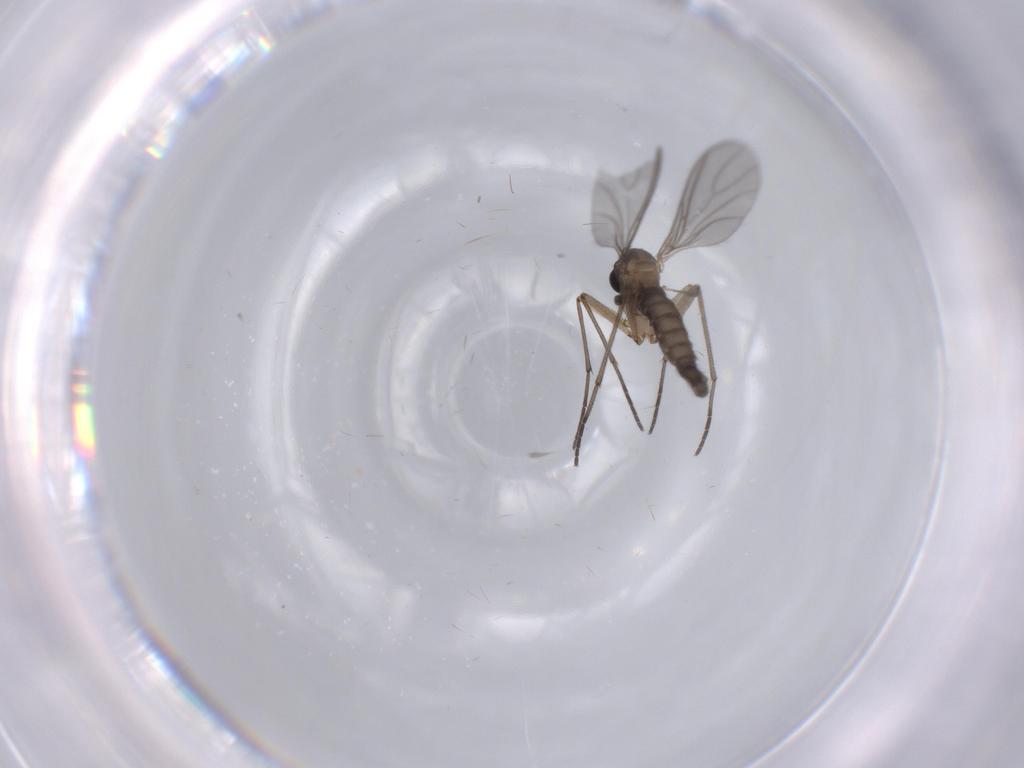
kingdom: Animalia
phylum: Arthropoda
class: Insecta
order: Diptera
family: Sciaridae
